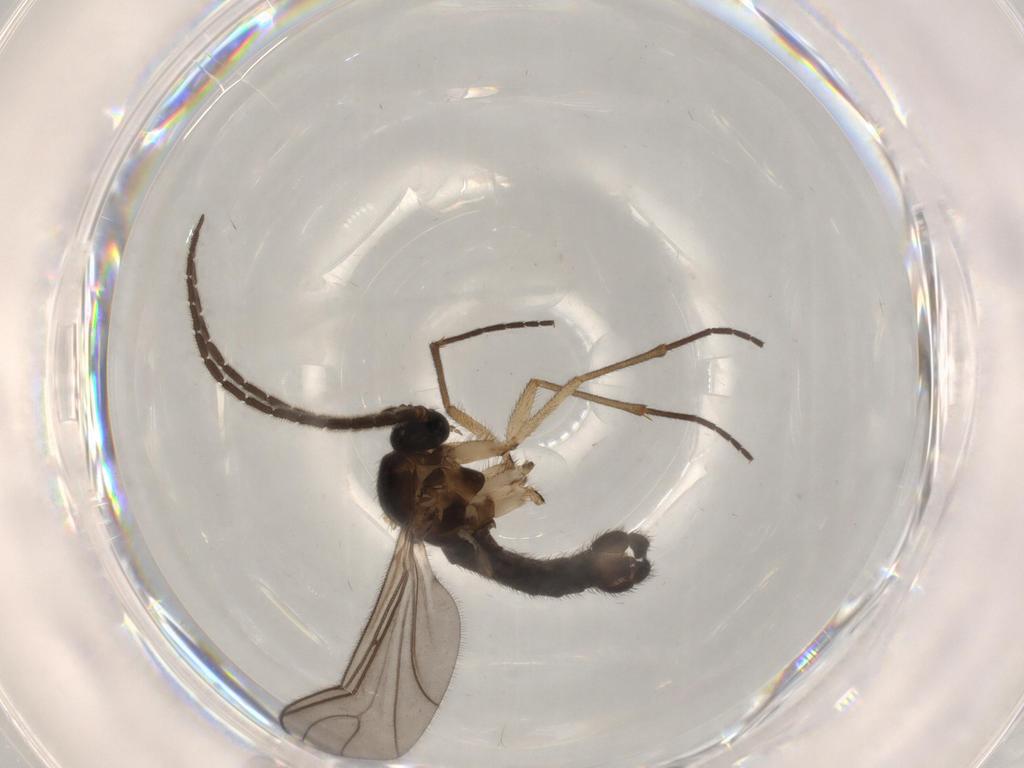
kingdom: Animalia
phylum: Arthropoda
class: Insecta
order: Diptera
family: Sciaridae
